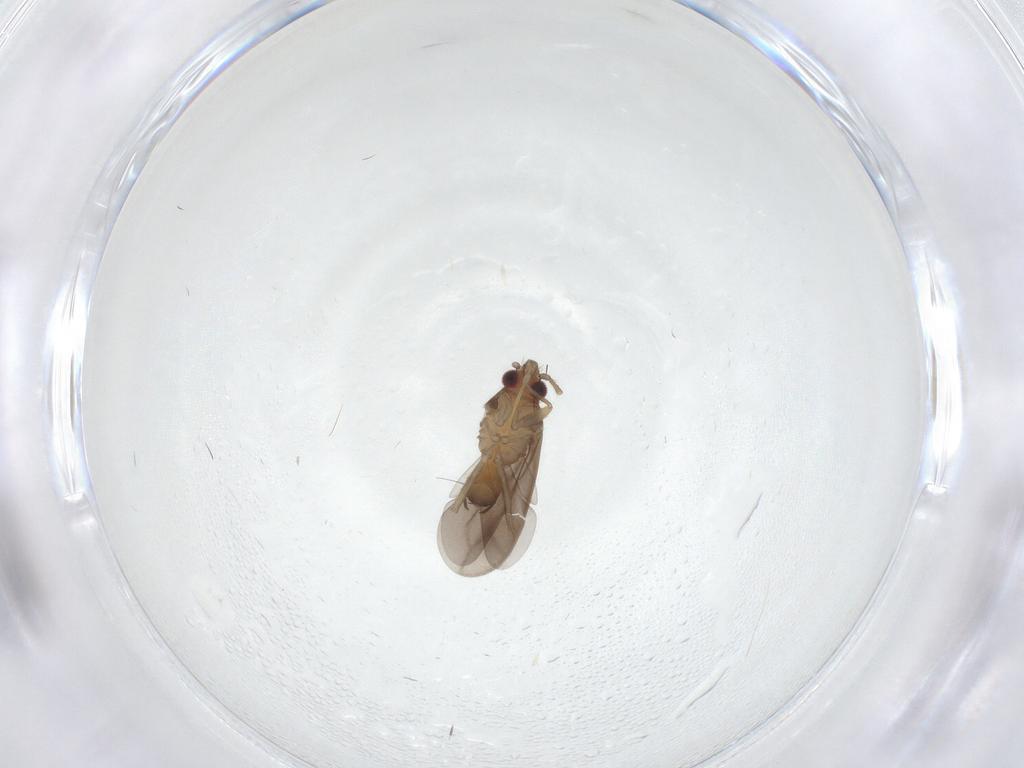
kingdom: Animalia
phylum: Arthropoda
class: Insecta
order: Hemiptera
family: Ceratocombidae
